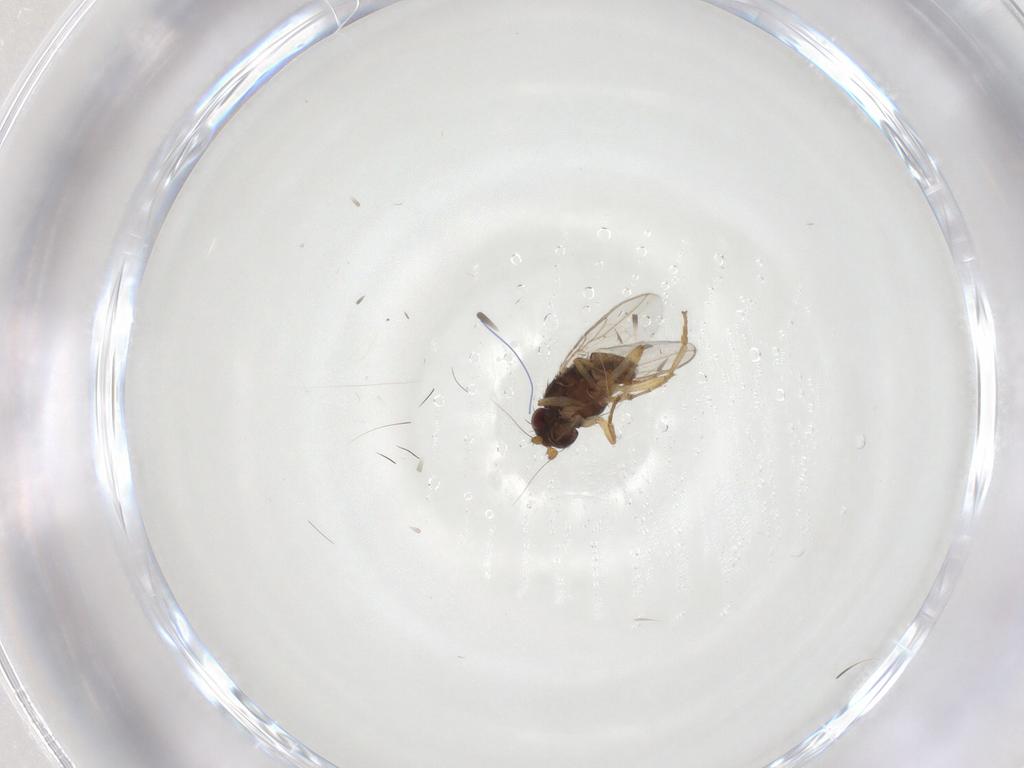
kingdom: Animalia
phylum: Arthropoda
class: Insecta
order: Diptera
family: Sphaeroceridae
